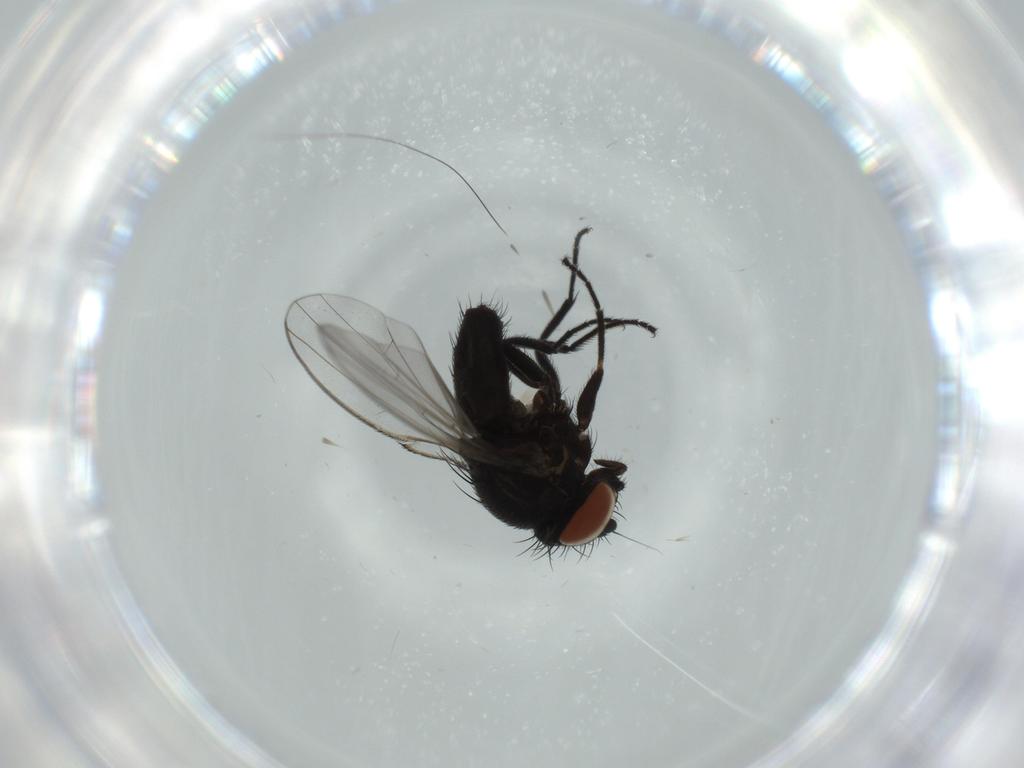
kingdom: Animalia
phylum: Arthropoda
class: Insecta
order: Diptera
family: Milichiidae
